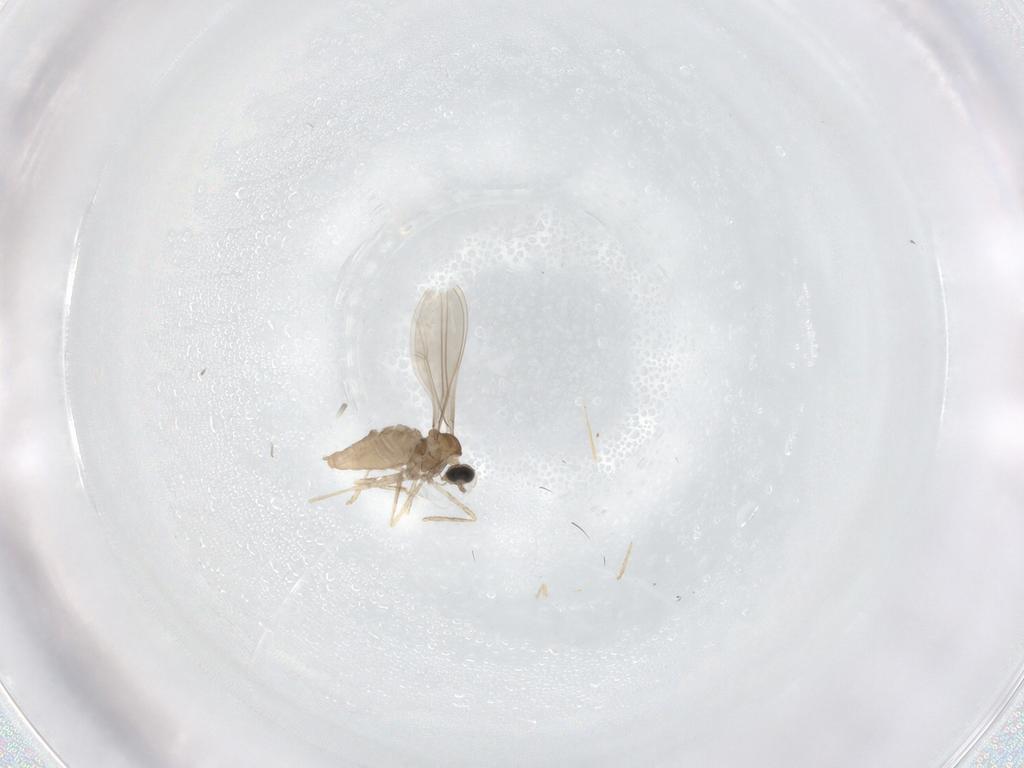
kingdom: Animalia
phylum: Arthropoda
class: Insecta
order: Diptera
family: Cecidomyiidae
